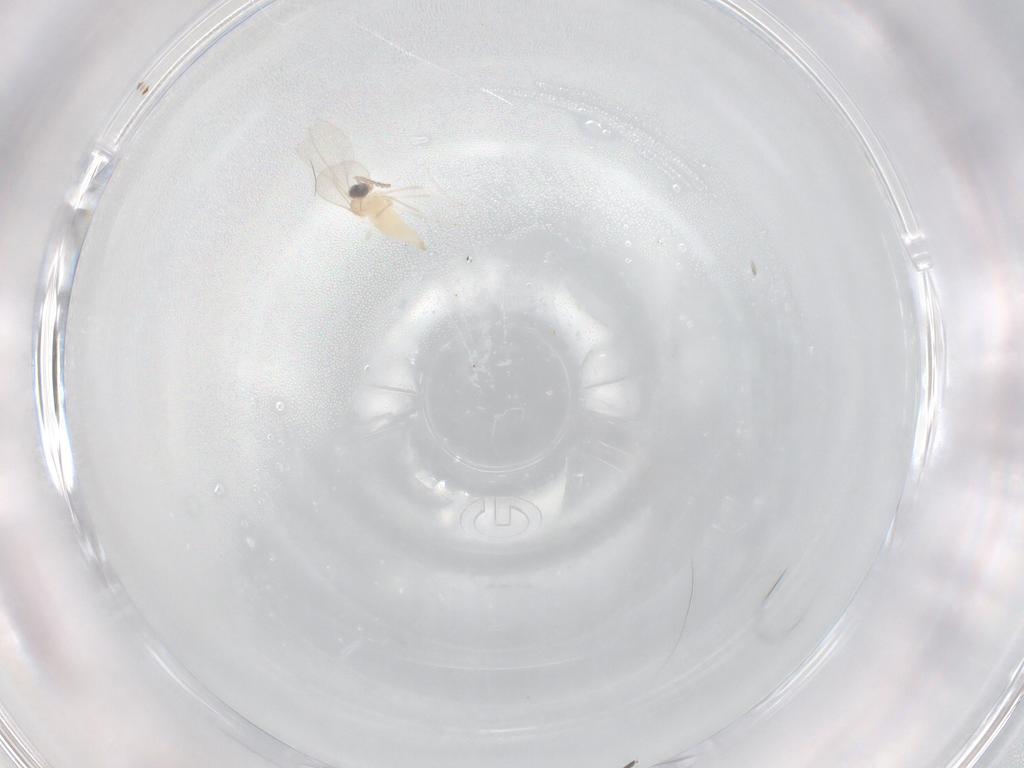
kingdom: Animalia
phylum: Arthropoda
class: Insecta
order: Diptera
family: Cecidomyiidae
